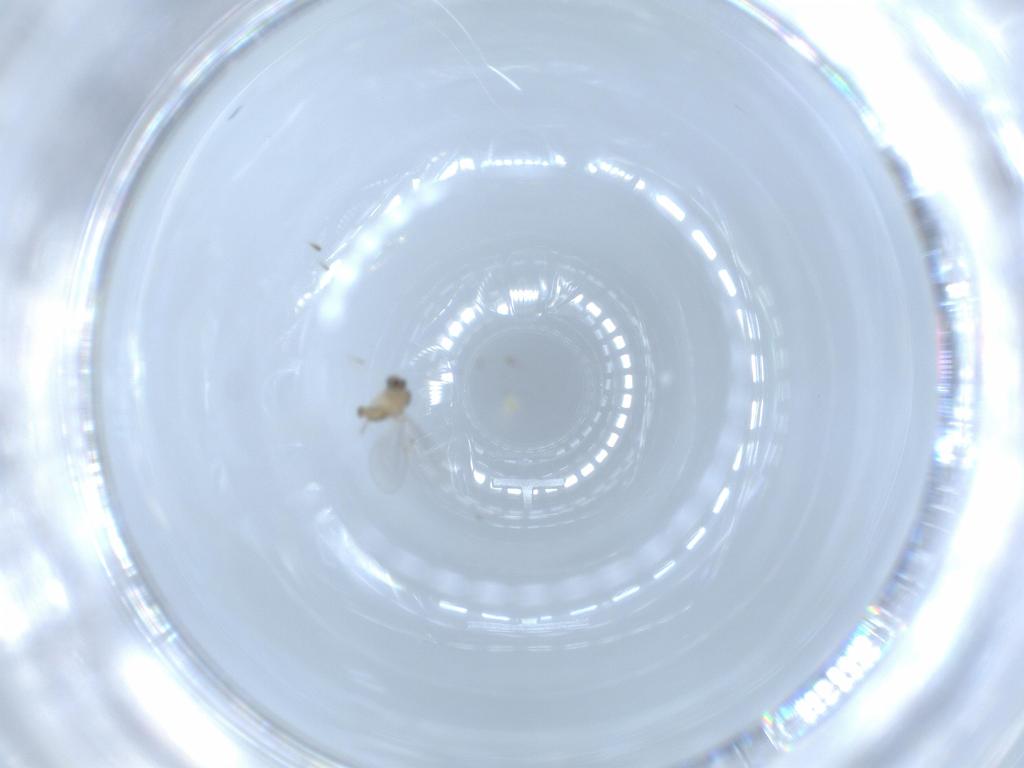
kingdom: Animalia
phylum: Arthropoda
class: Insecta
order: Diptera
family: Cecidomyiidae
